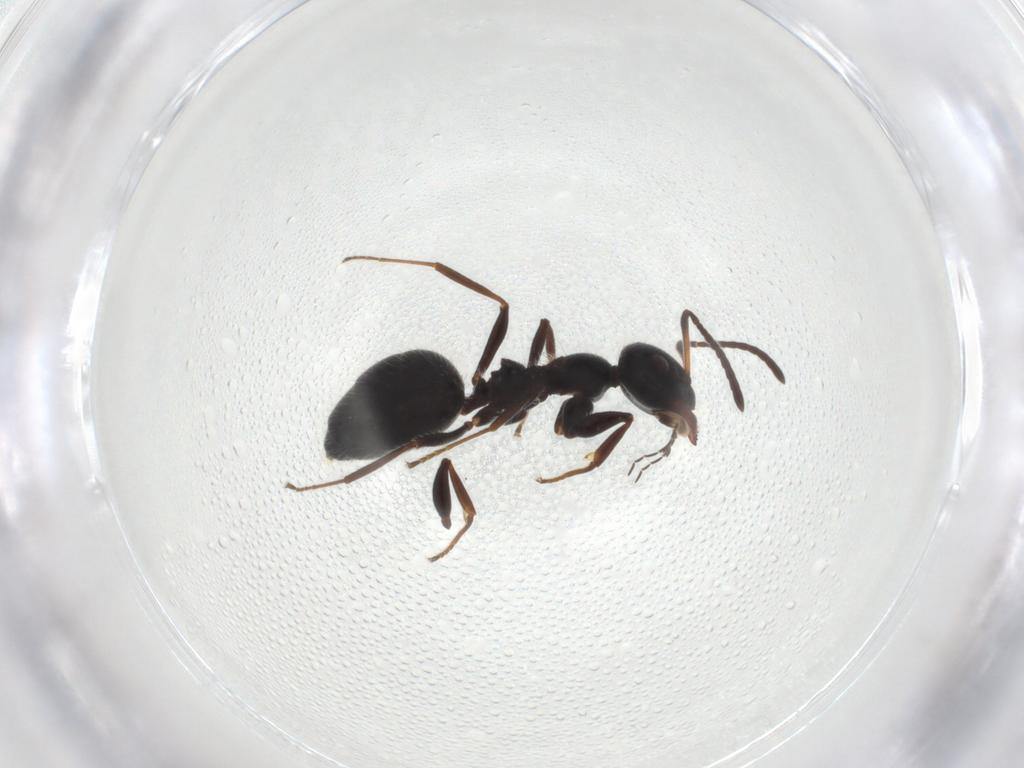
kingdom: Animalia
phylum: Arthropoda
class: Insecta
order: Hymenoptera
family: Formicidae
